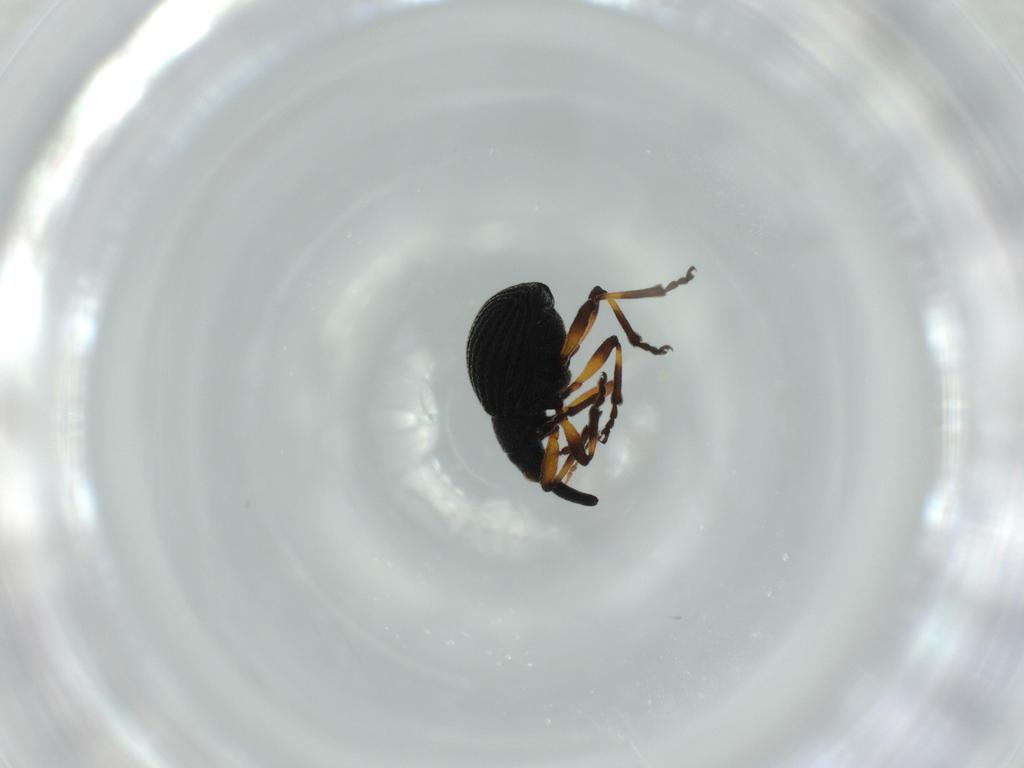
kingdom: Animalia
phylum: Arthropoda
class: Insecta
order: Coleoptera
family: Brentidae
